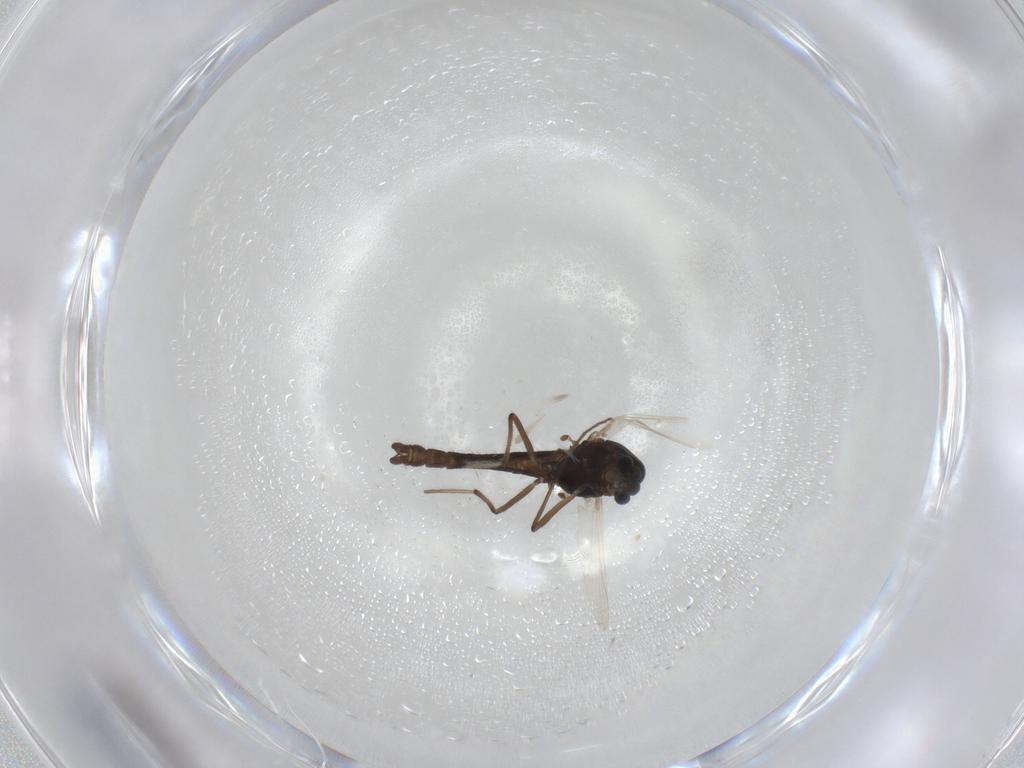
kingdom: Animalia
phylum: Arthropoda
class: Insecta
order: Diptera
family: Chironomidae
